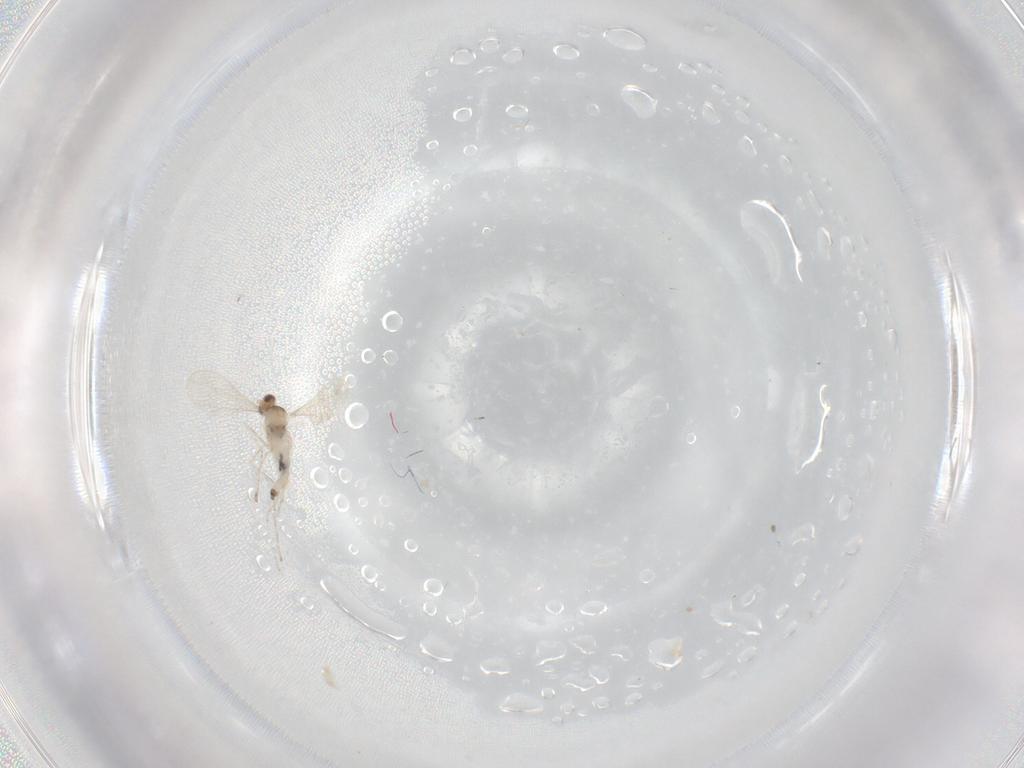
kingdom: Animalia
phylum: Arthropoda
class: Insecta
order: Diptera
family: Cecidomyiidae
